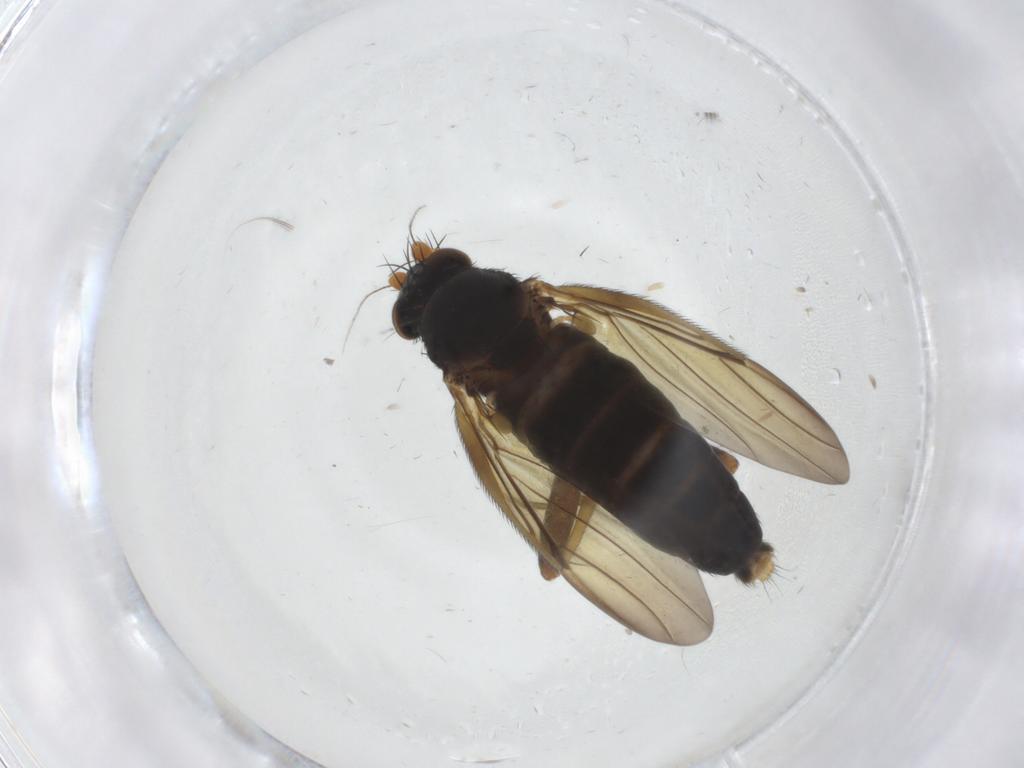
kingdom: Animalia
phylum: Arthropoda
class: Insecta
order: Diptera
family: Phoridae
